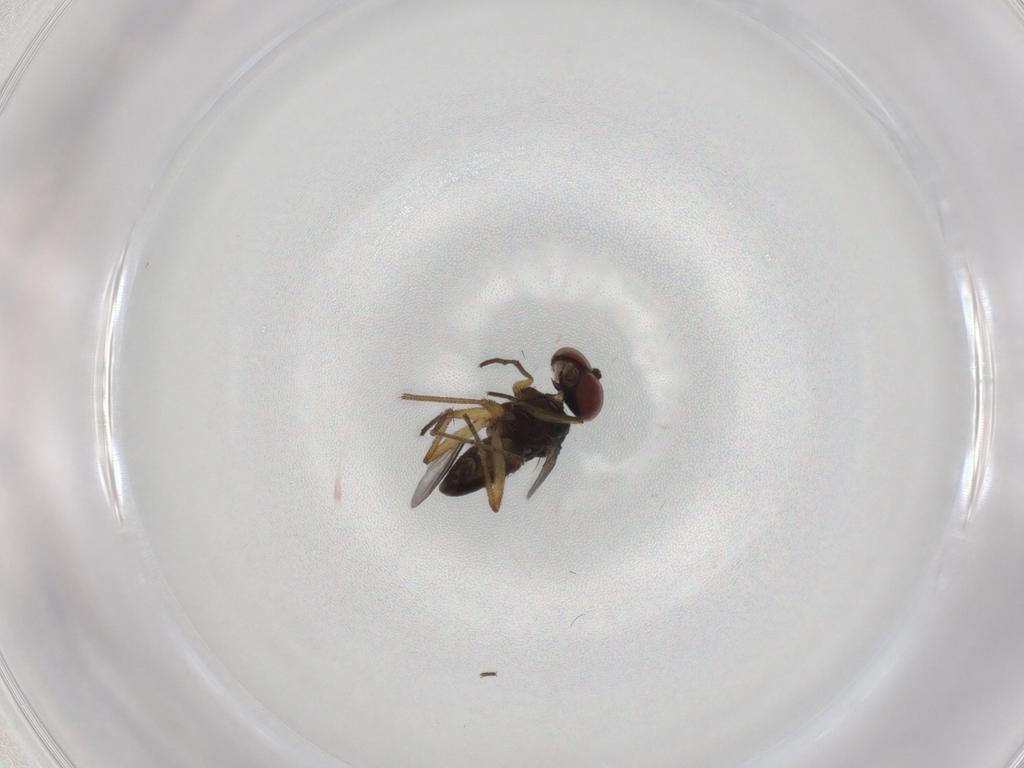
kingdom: Animalia
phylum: Arthropoda
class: Insecta
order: Diptera
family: Dolichopodidae
